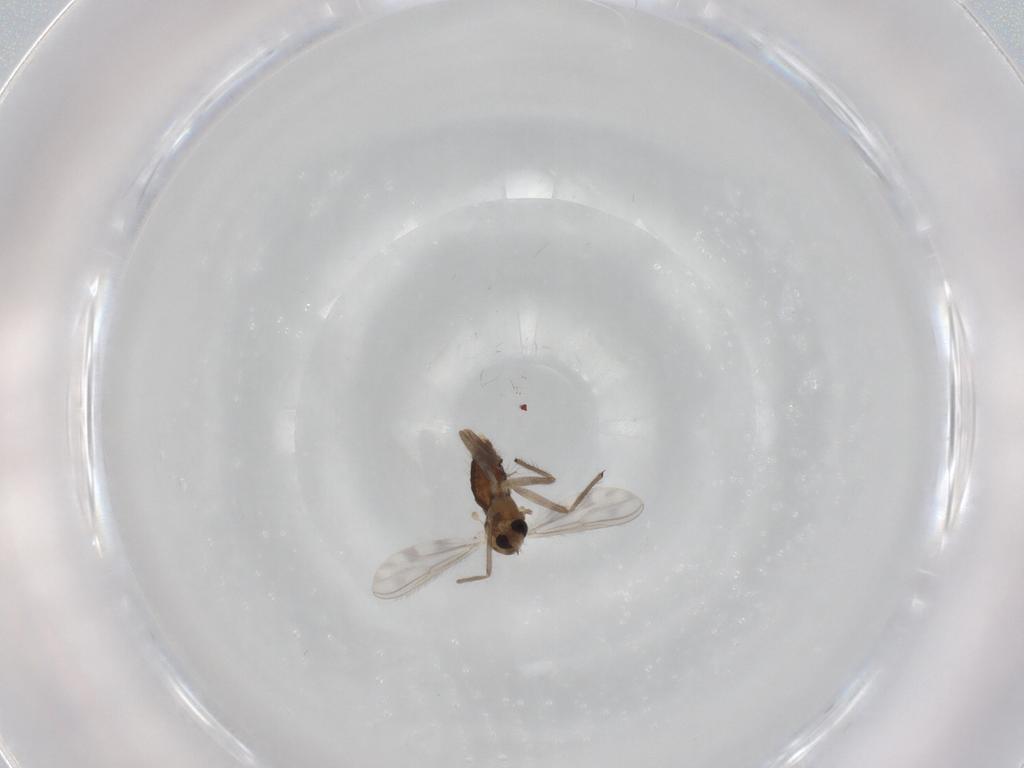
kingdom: Animalia
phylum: Arthropoda
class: Insecta
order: Diptera
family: Chironomidae
